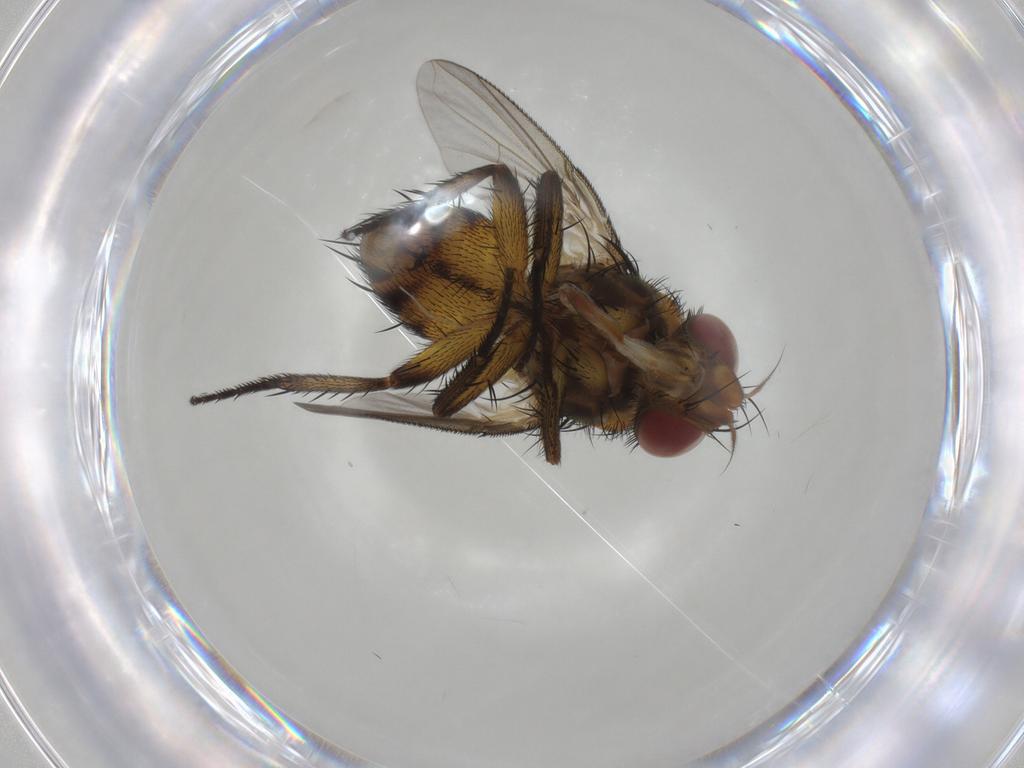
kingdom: Animalia
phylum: Arthropoda
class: Insecta
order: Diptera
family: Tachinidae
